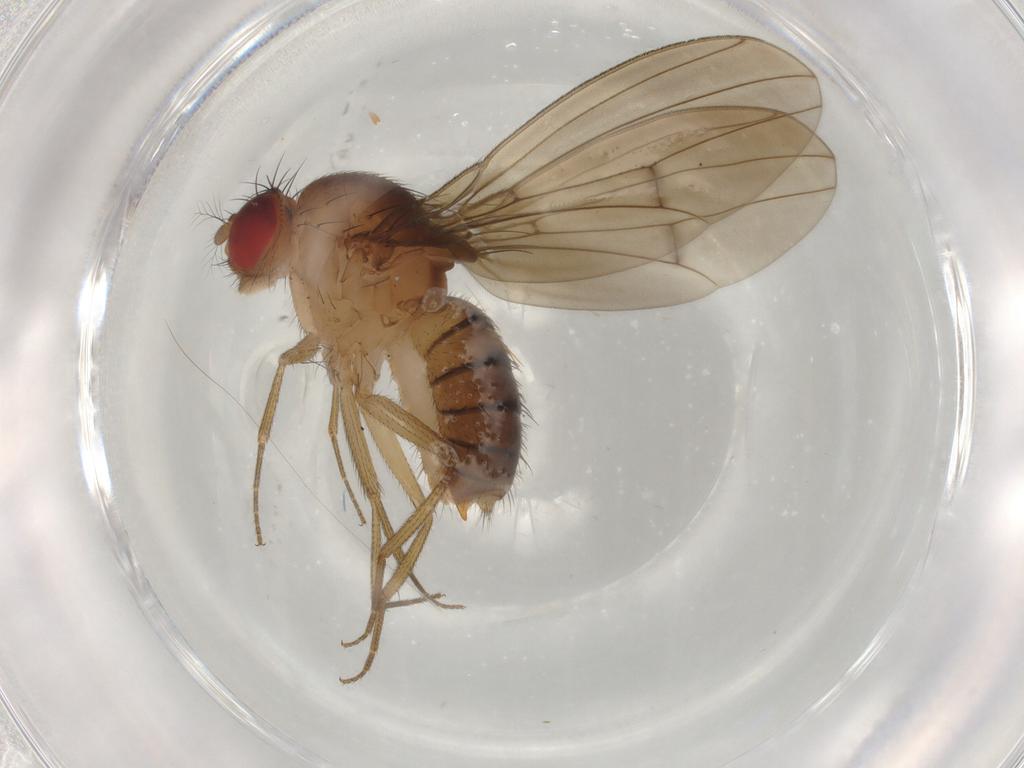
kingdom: Animalia
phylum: Arthropoda
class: Insecta
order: Diptera
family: Drosophilidae
